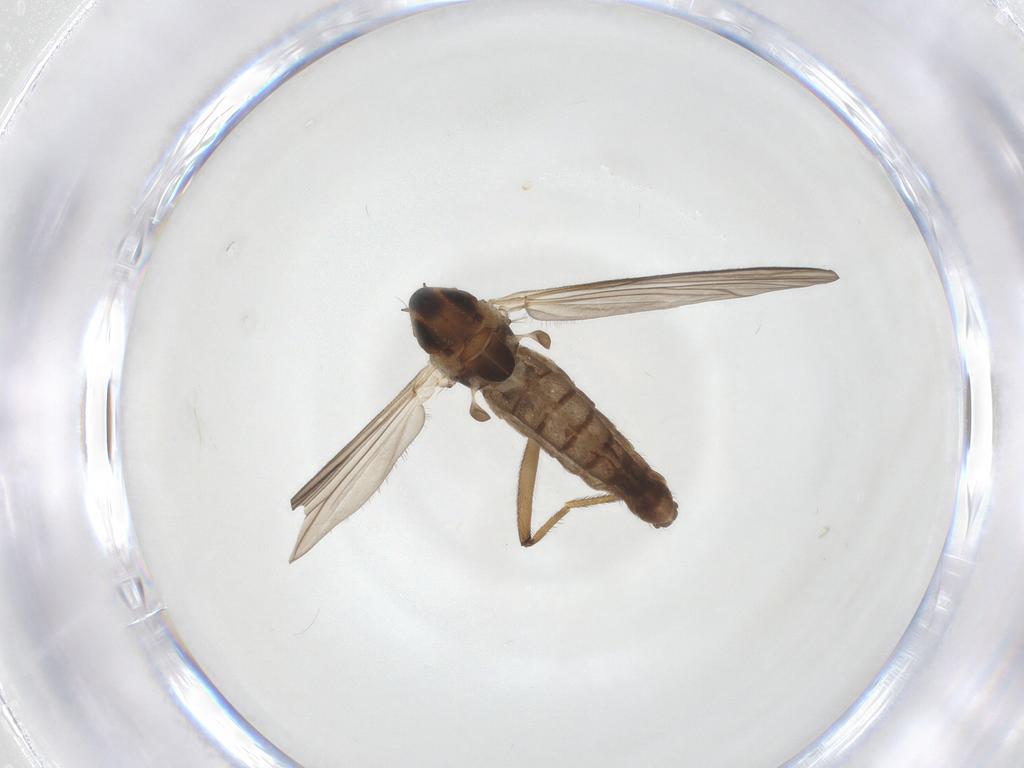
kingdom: Animalia
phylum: Arthropoda
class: Insecta
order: Diptera
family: Chironomidae
